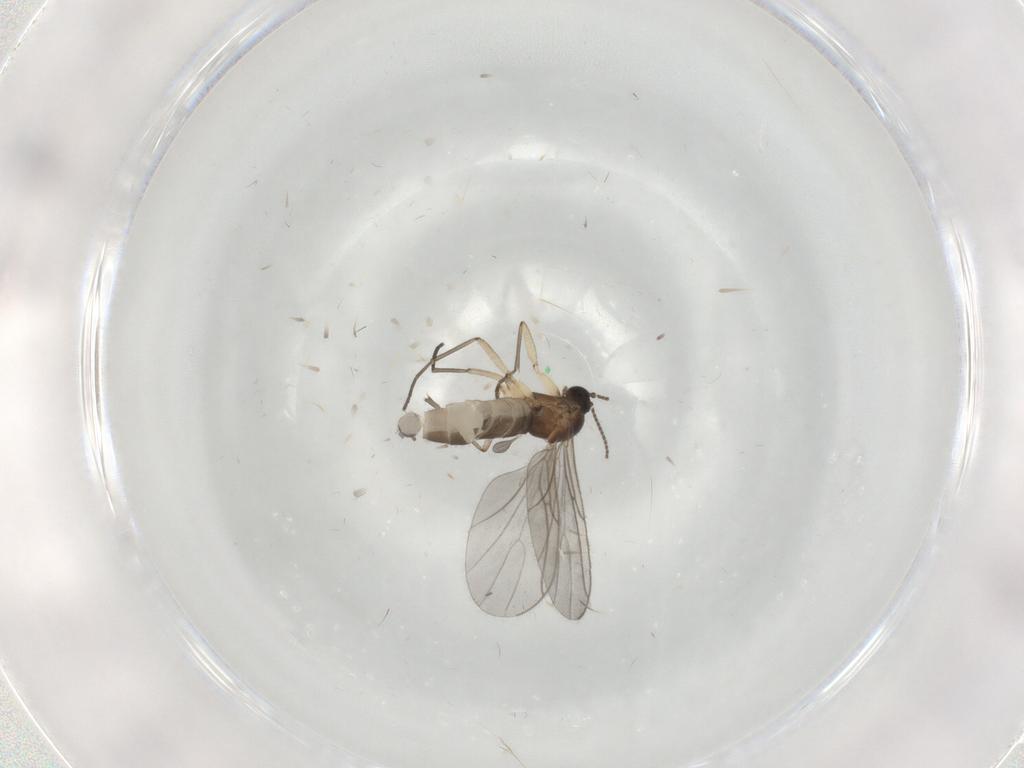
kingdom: Animalia
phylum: Arthropoda
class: Insecta
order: Diptera
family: Sciaridae
